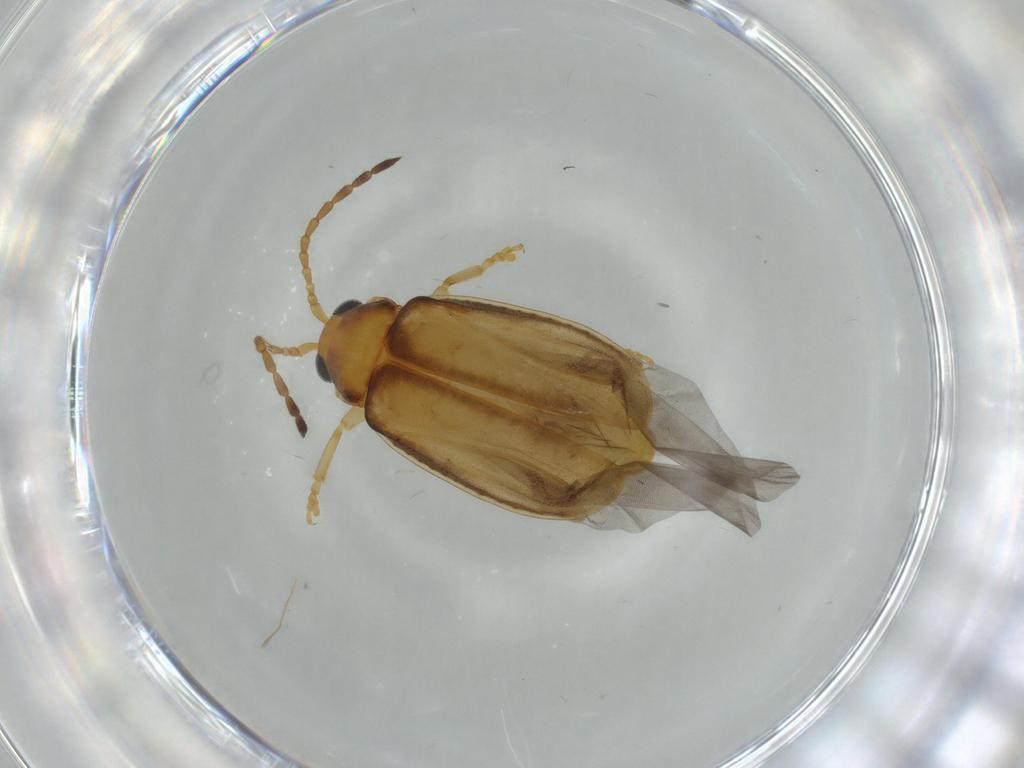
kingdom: Animalia
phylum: Arthropoda
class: Insecta
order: Coleoptera
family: Chrysomelidae
